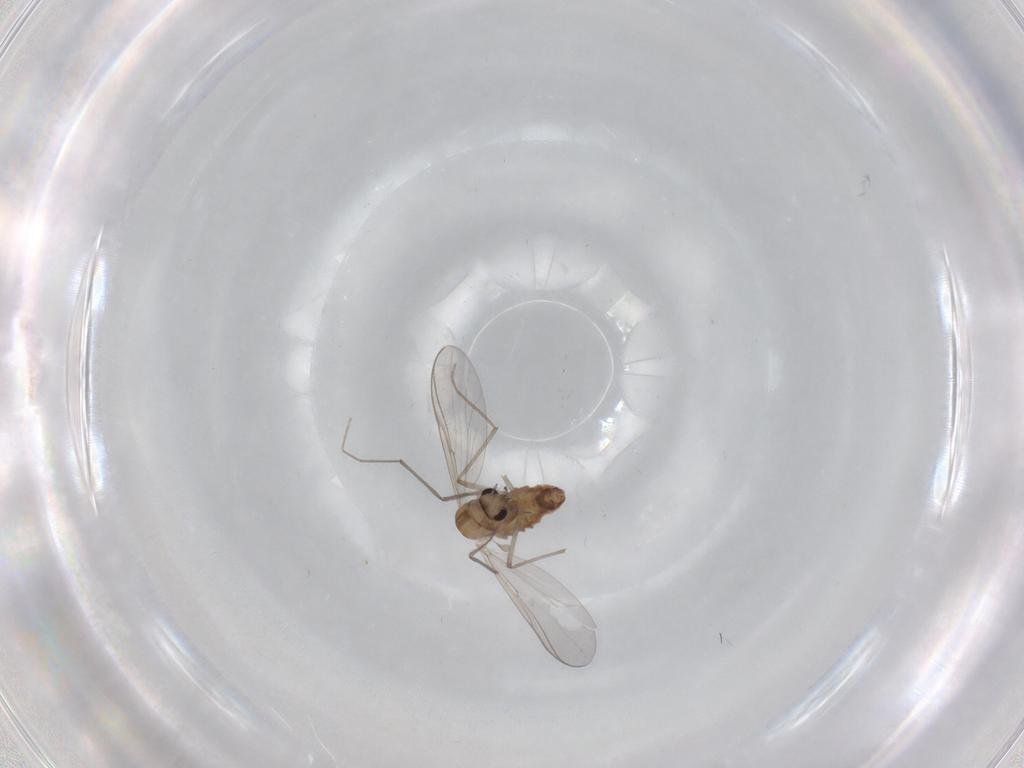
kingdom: Animalia
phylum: Arthropoda
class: Insecta
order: Diptera
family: Chironomidae
